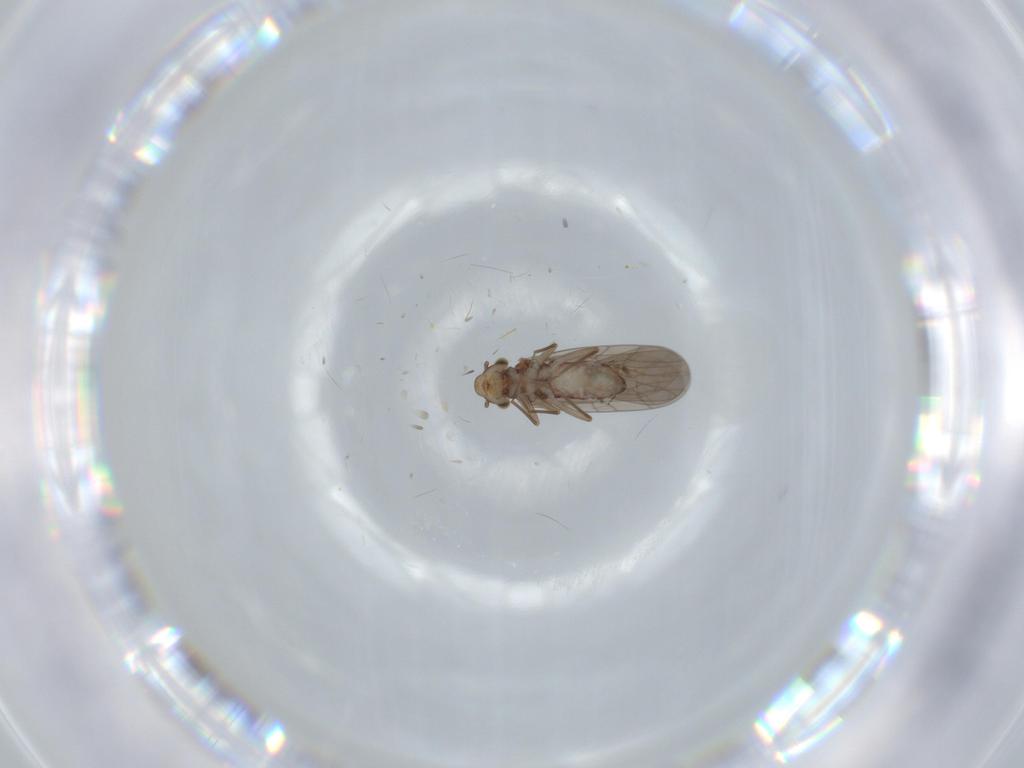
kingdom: Animalia
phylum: Arthropoda
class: Insecta
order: Psocodea
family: Lepidopsocidae
